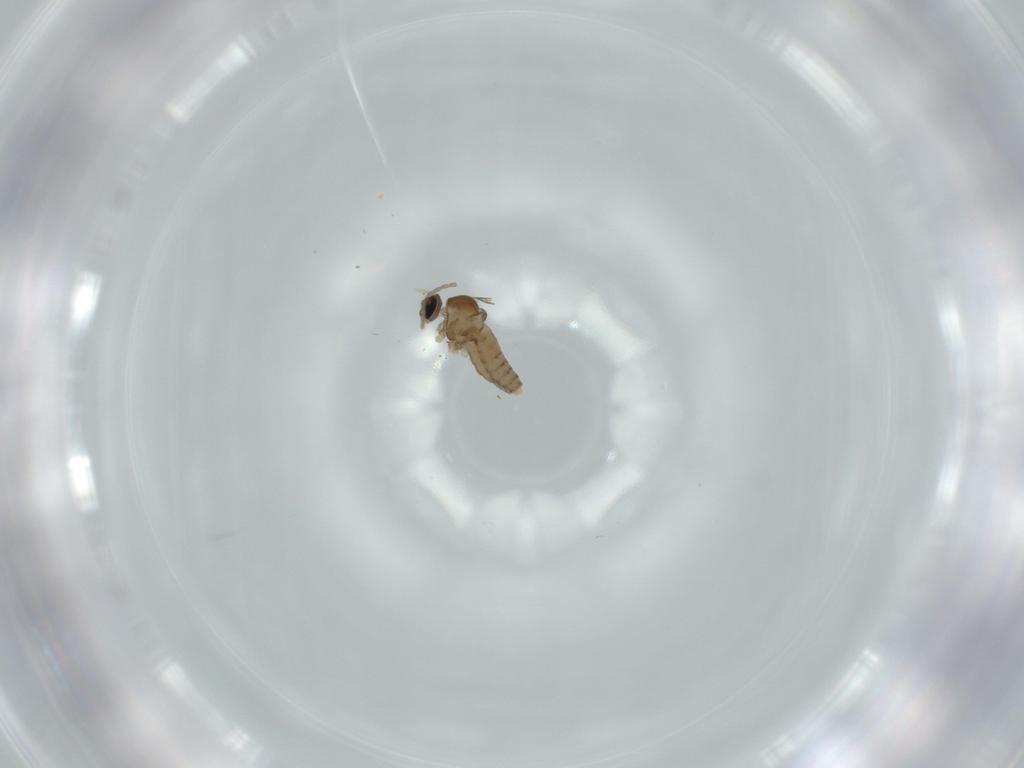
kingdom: Animalia
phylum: Arthropoda
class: Insecta
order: Diptera
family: Cecidomyiidae
